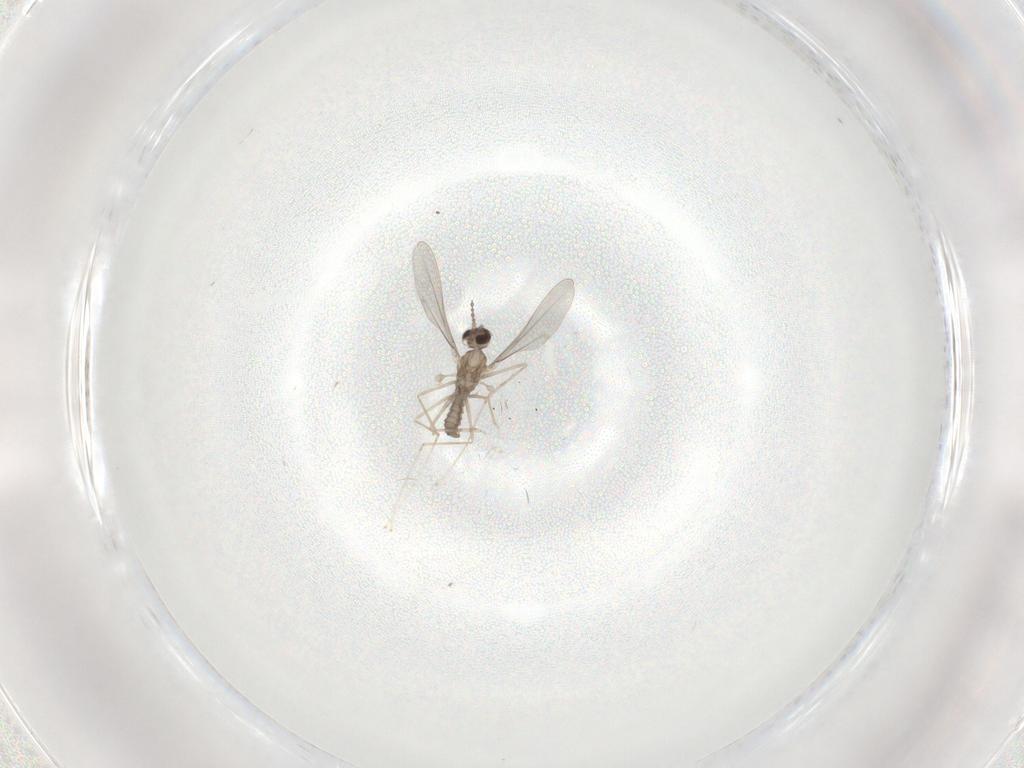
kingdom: Animalia
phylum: Arthropoda
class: Insecta
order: Diptera
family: Cecidomyiidae
